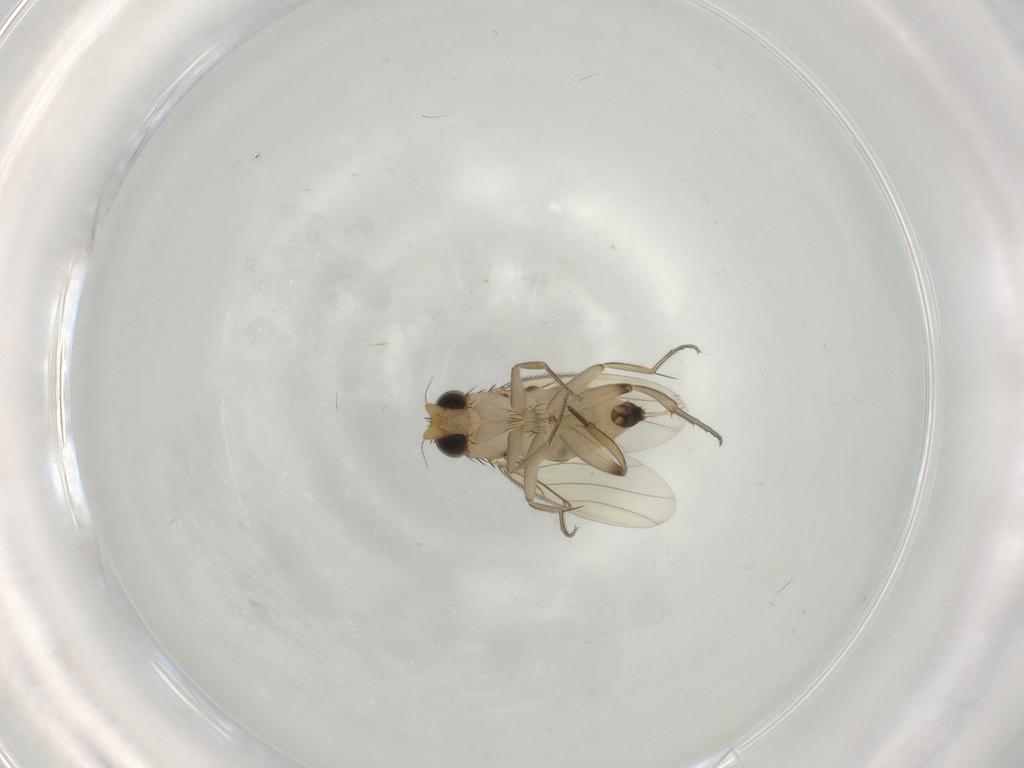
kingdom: Animalia
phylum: Arthropoda
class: Insecta
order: Diptera
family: Phoridae
